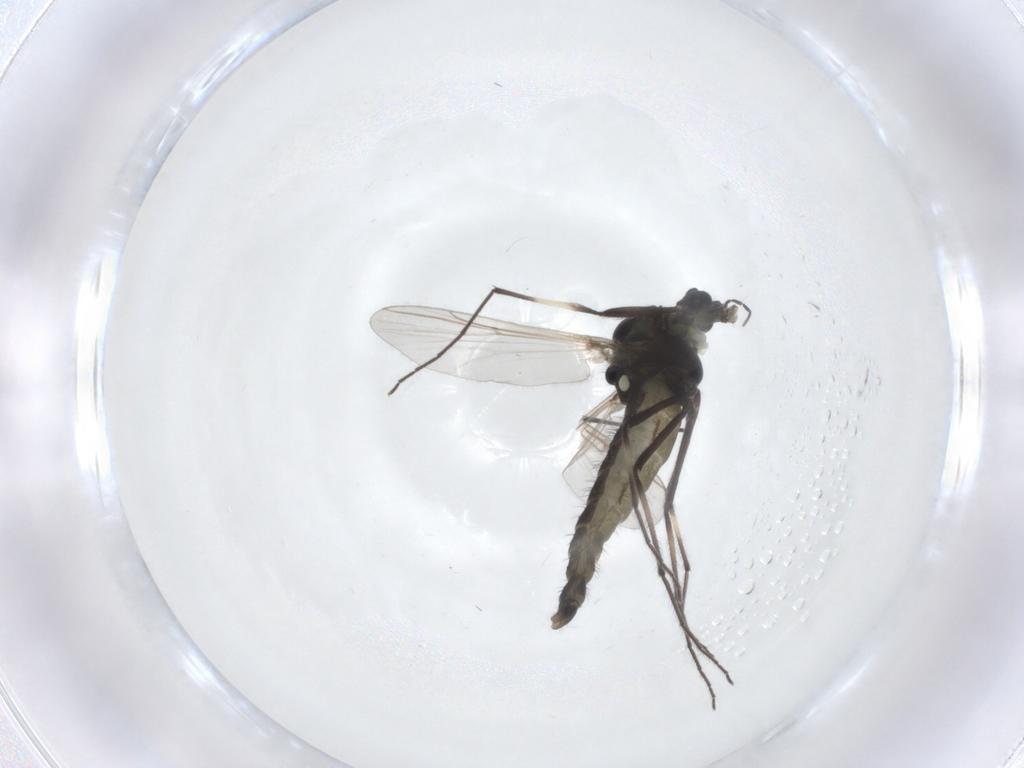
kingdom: Animalia
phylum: Arthropoda
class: Insecta
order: Diptera
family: Chironomidae
